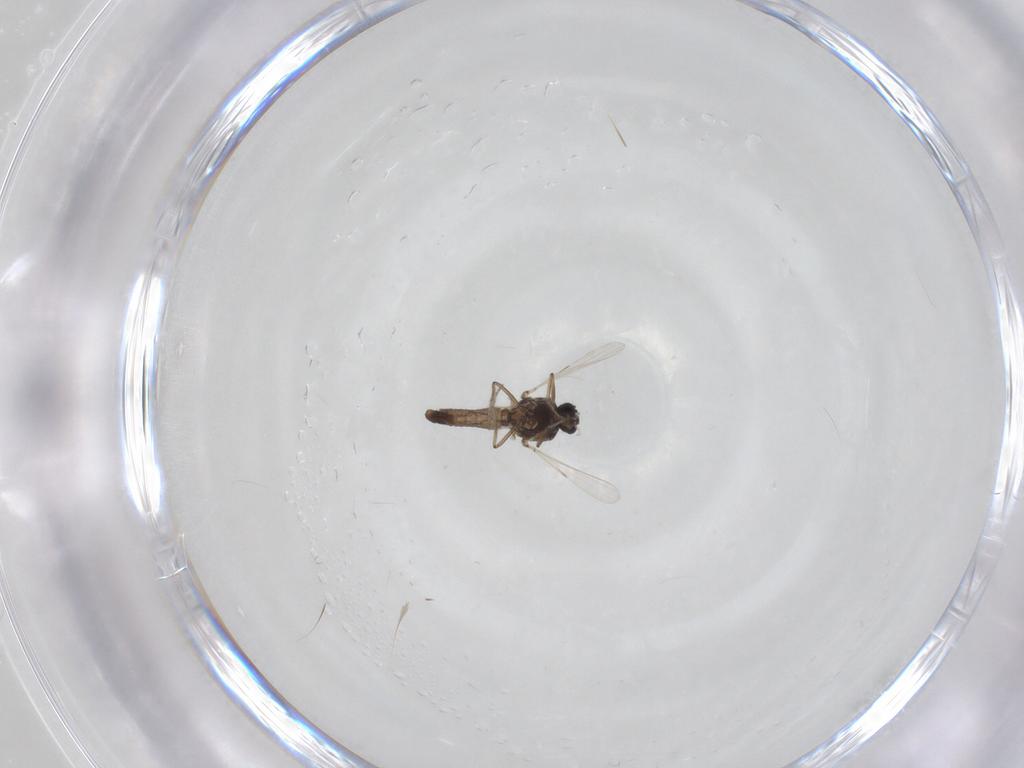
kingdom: Animalia
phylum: Arthropoda
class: Insecta
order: Diptera
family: Ceratopogonidae
